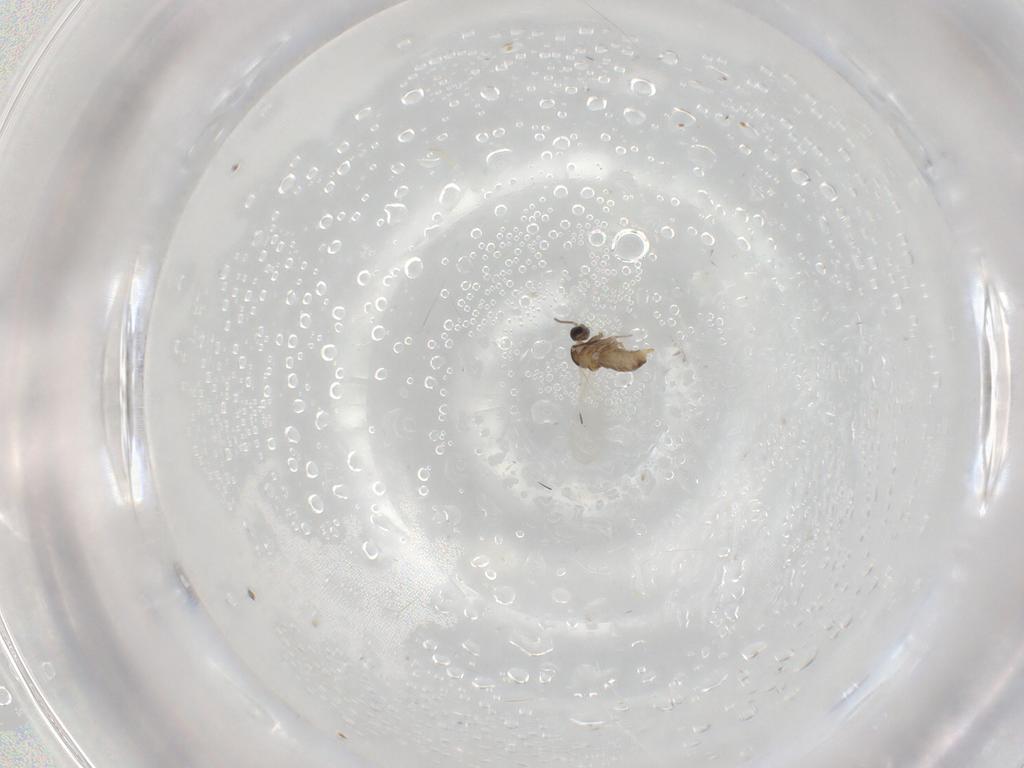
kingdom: Animalia
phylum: Arthropoda
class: Insecta
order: Diptera
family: Cecidomyiidae
